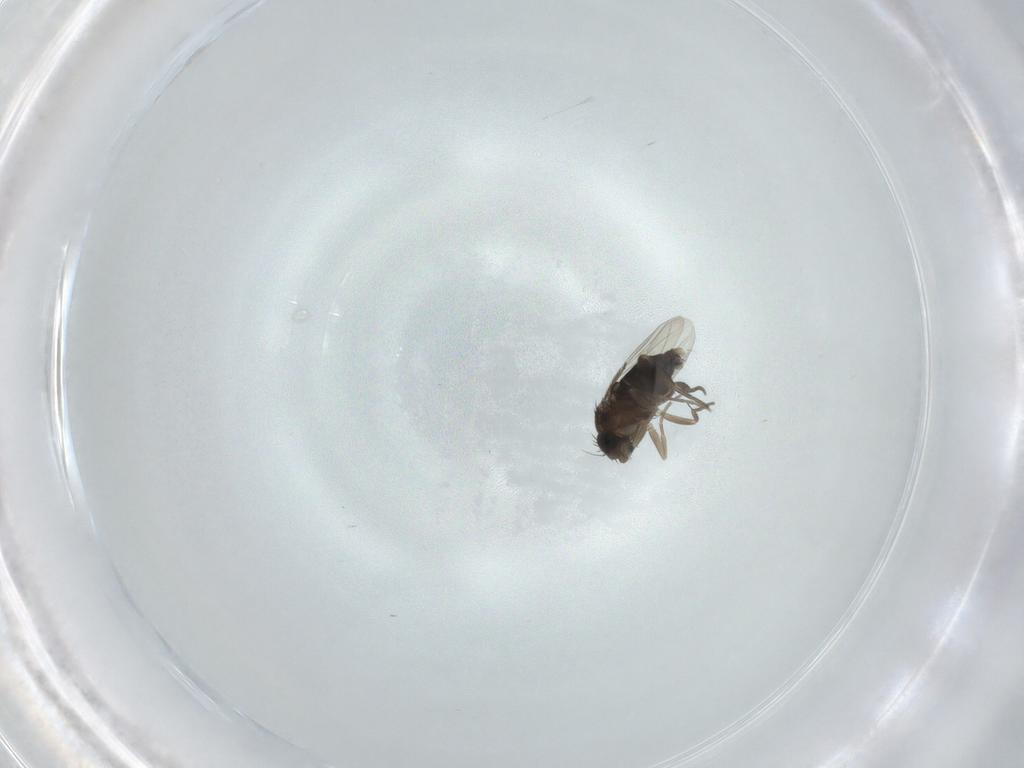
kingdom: Animalia
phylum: Arthropoda
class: Insecta
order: Diptera
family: Phoridae
